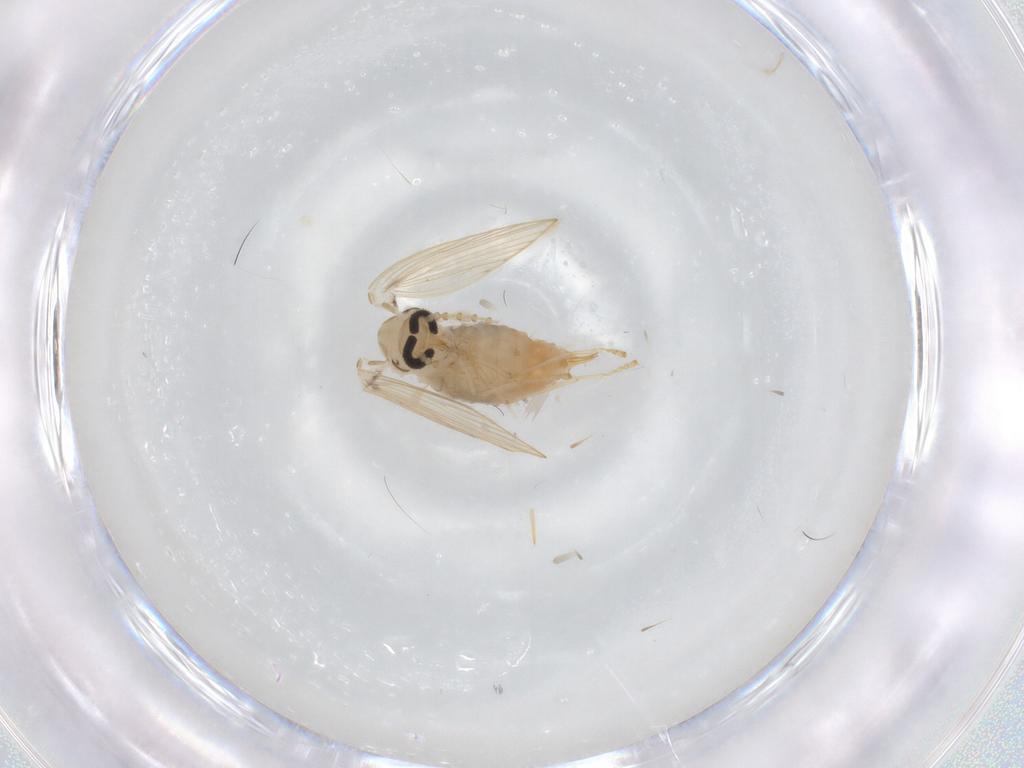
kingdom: Animalia
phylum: Arthropoda
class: Insecta
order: Diptera
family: Psychodidae
